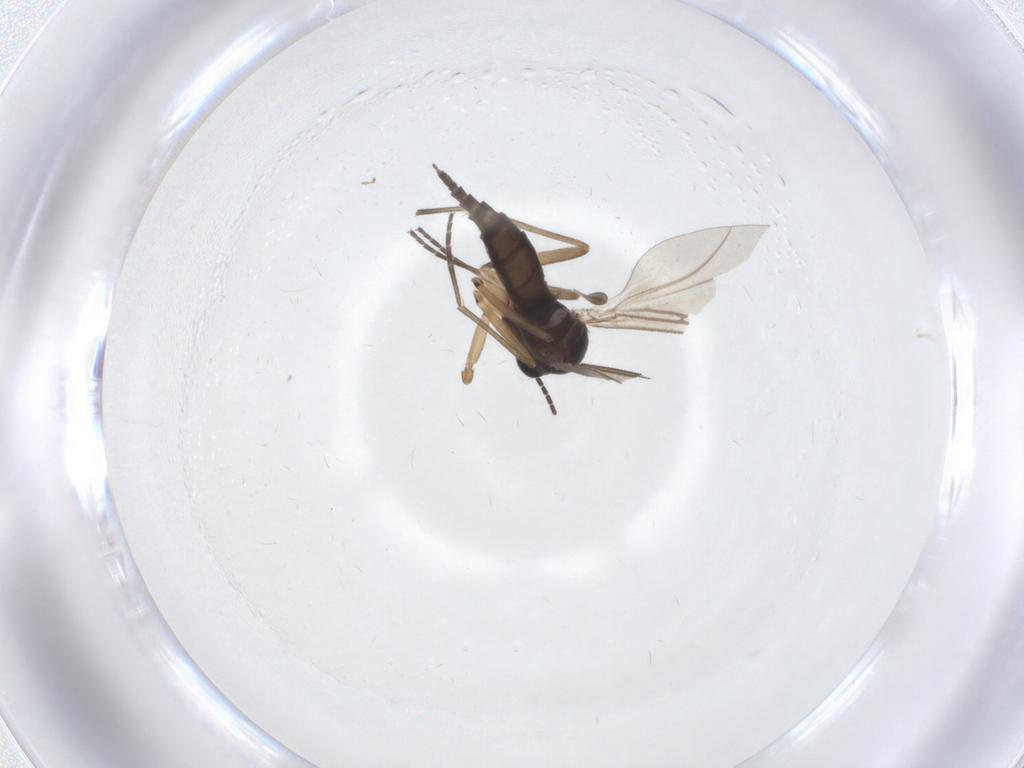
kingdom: Animalia
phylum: Arthropoda
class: Insecta
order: Diptera
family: Sciaridae
